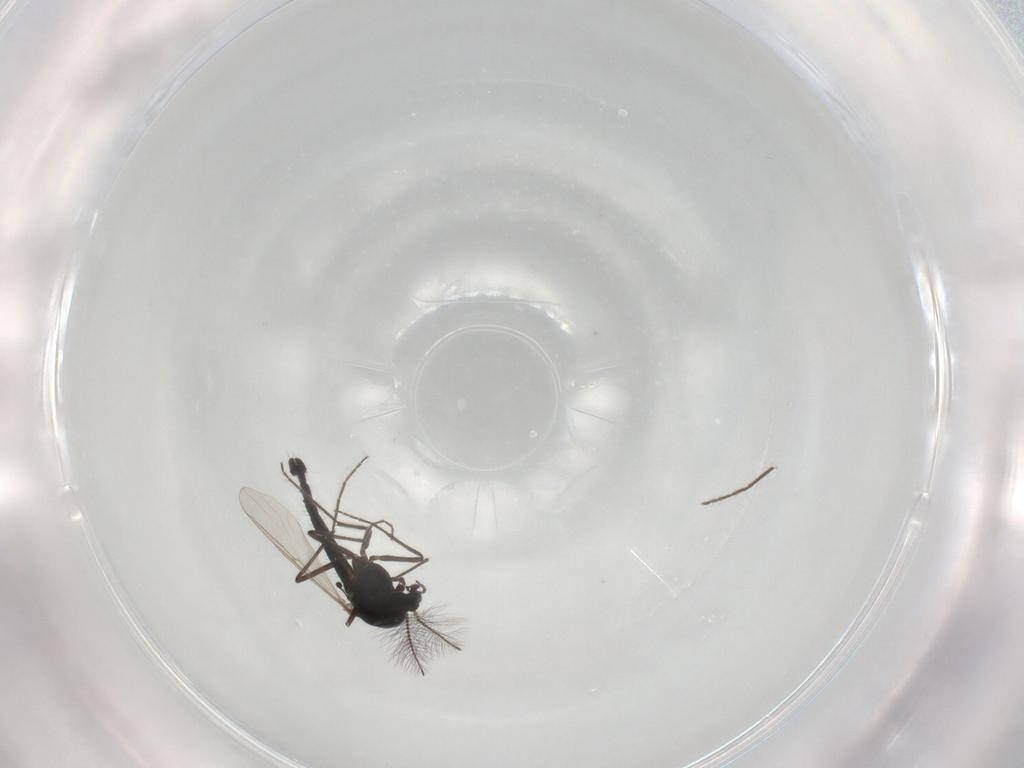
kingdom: Animalia
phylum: Arthropoda
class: Insecta
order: Diptera
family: Chironomidae
